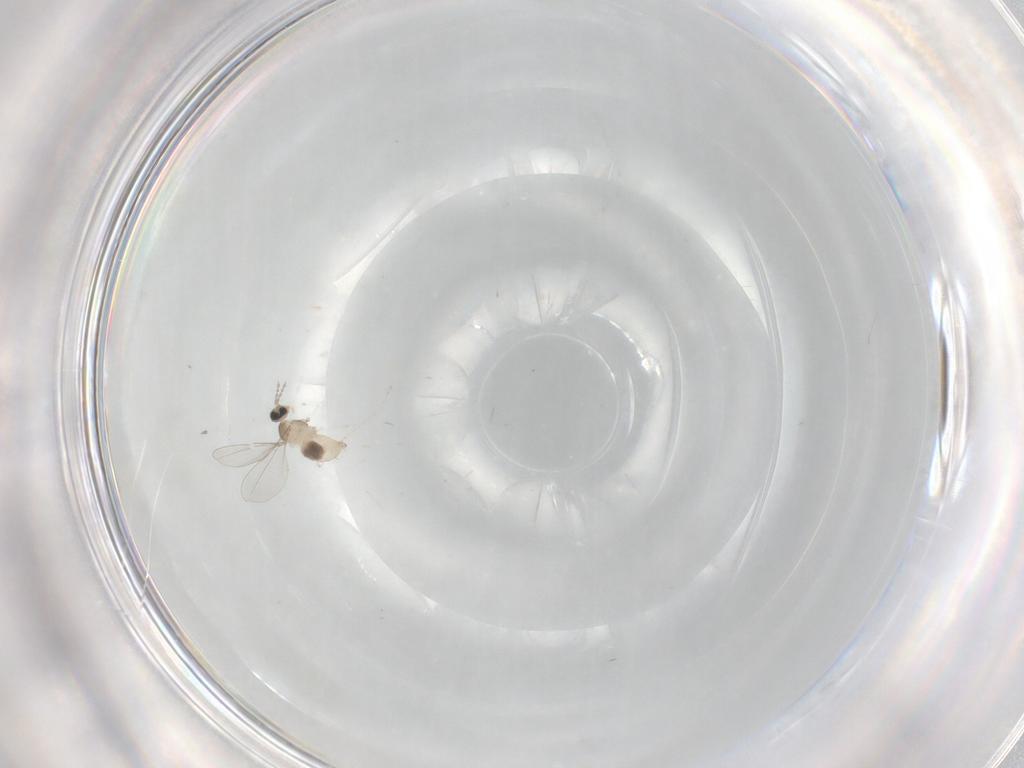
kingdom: Animalia
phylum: Arthropoda
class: Insecta
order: Diptera
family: Cecidomyiidae
